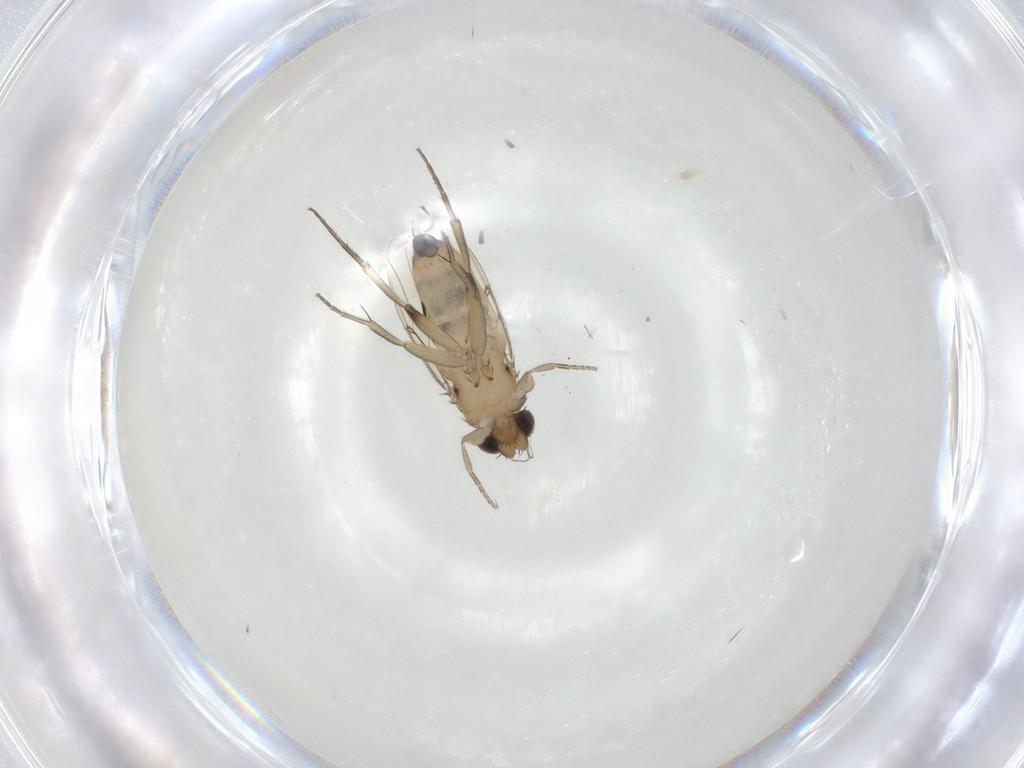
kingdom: Animalia
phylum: Arthropoda
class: Insecta
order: Diptera
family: Phoridae
